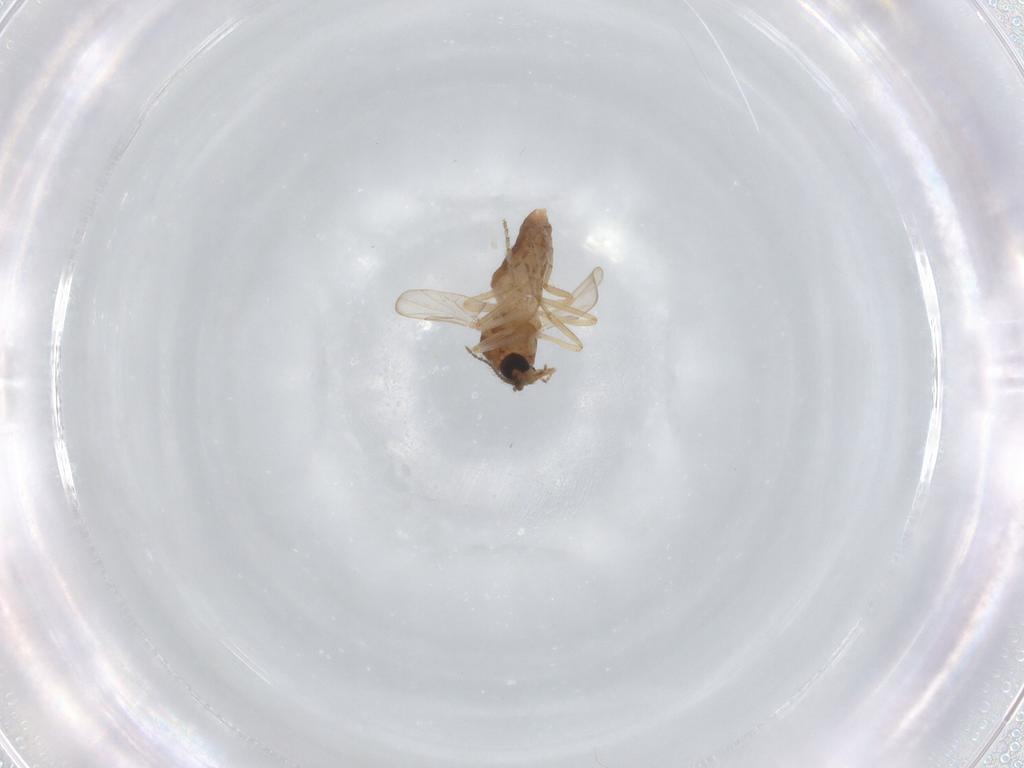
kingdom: Animalia
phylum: Arthropoda
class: Insecta
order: Diptera
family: Ceratopogonidae
